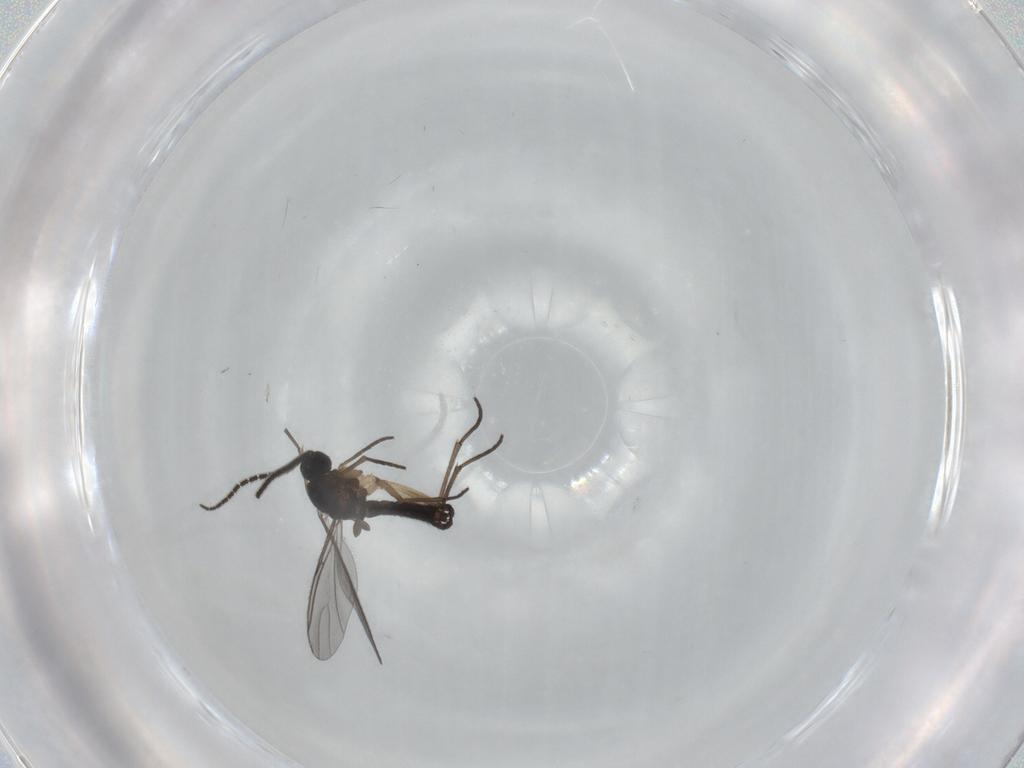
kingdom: Animalia
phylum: Arthropoda
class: Insecta
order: Diptera
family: Sciaridae
